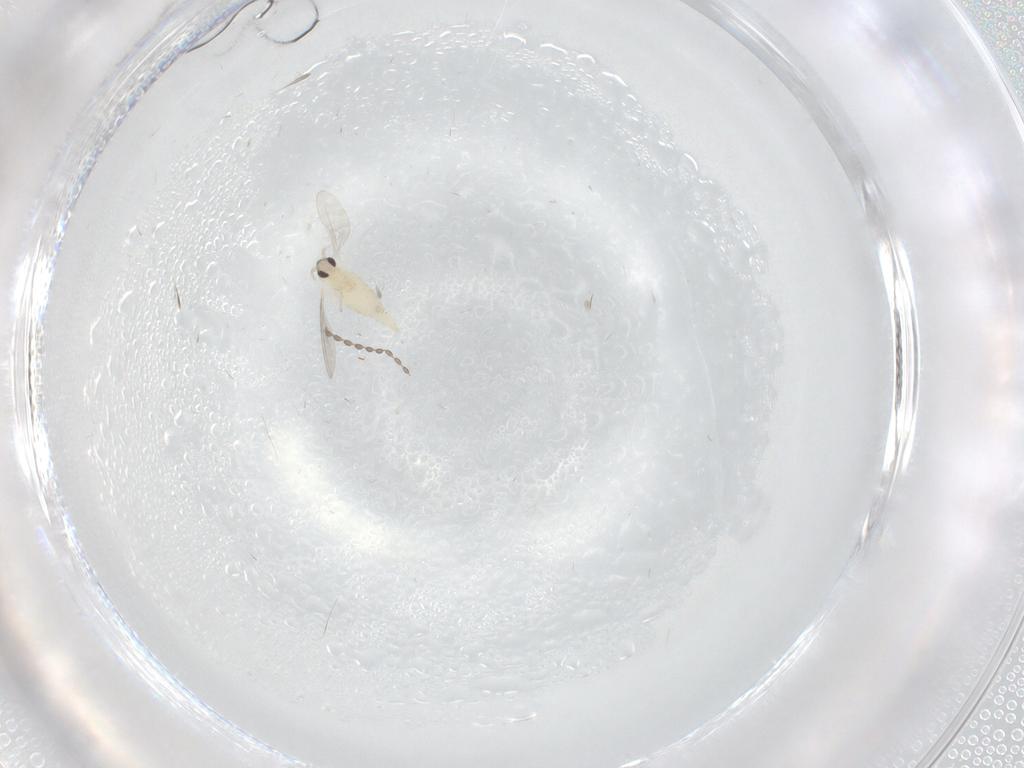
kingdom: Animalia
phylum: Arthropoda
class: Insecta
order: Diptera
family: Cecidomyiidae
